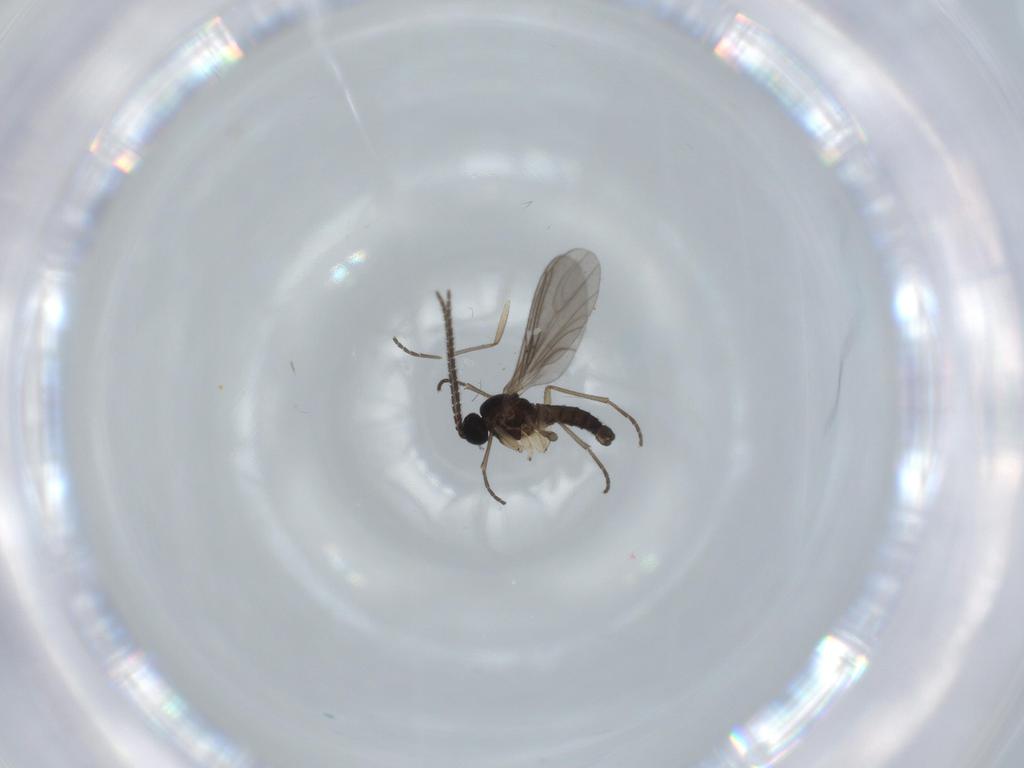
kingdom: Animalia
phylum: Arthropoda
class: Insecta
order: Diptera
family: Sciaridae
